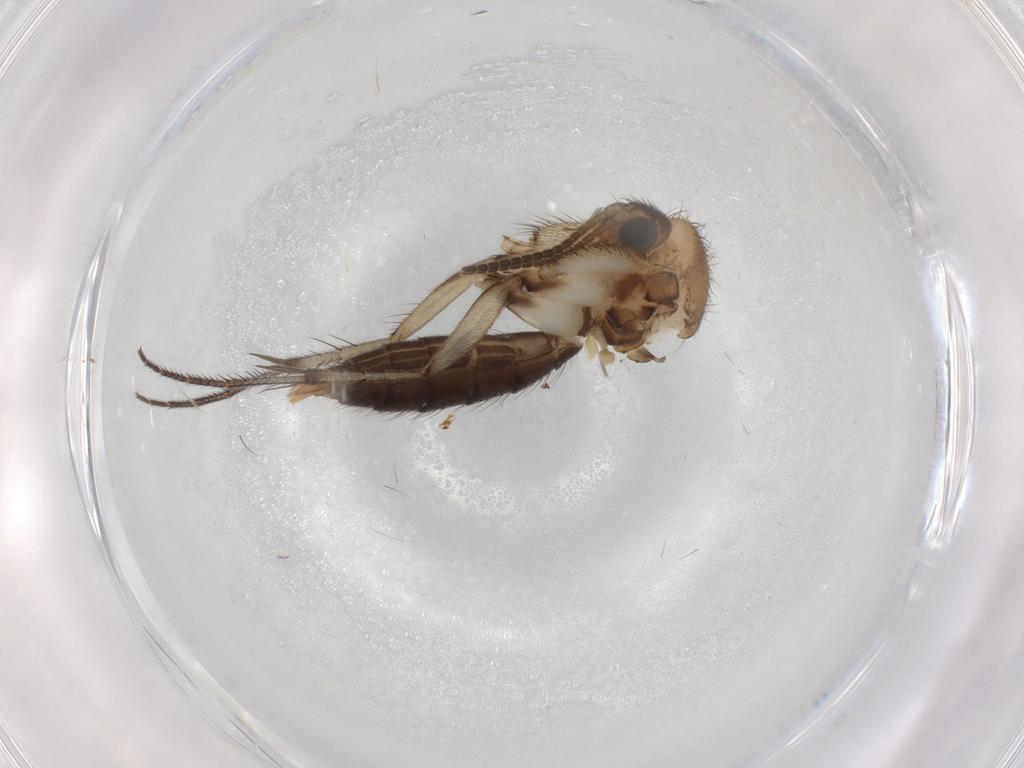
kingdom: Animalia
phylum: Arthropoda
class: Insecta
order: Diptera
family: Mycetophilidae
